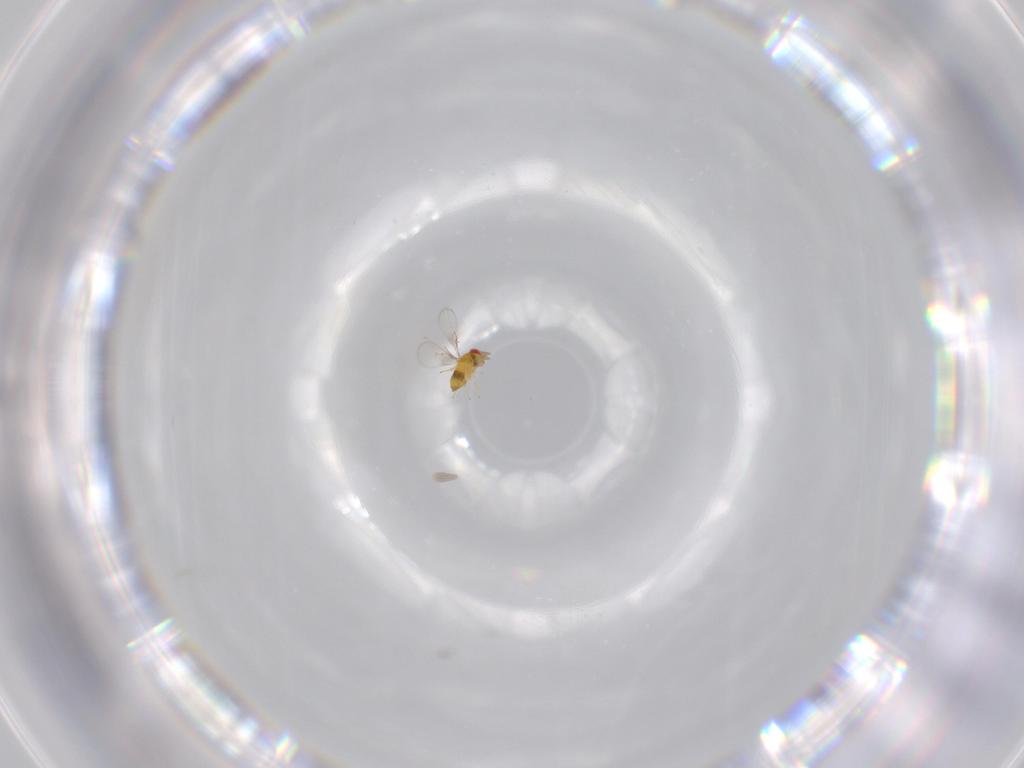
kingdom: Animalia
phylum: Arthropoda
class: Insecta
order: Hymenoptera
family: Trichogrammatidae
